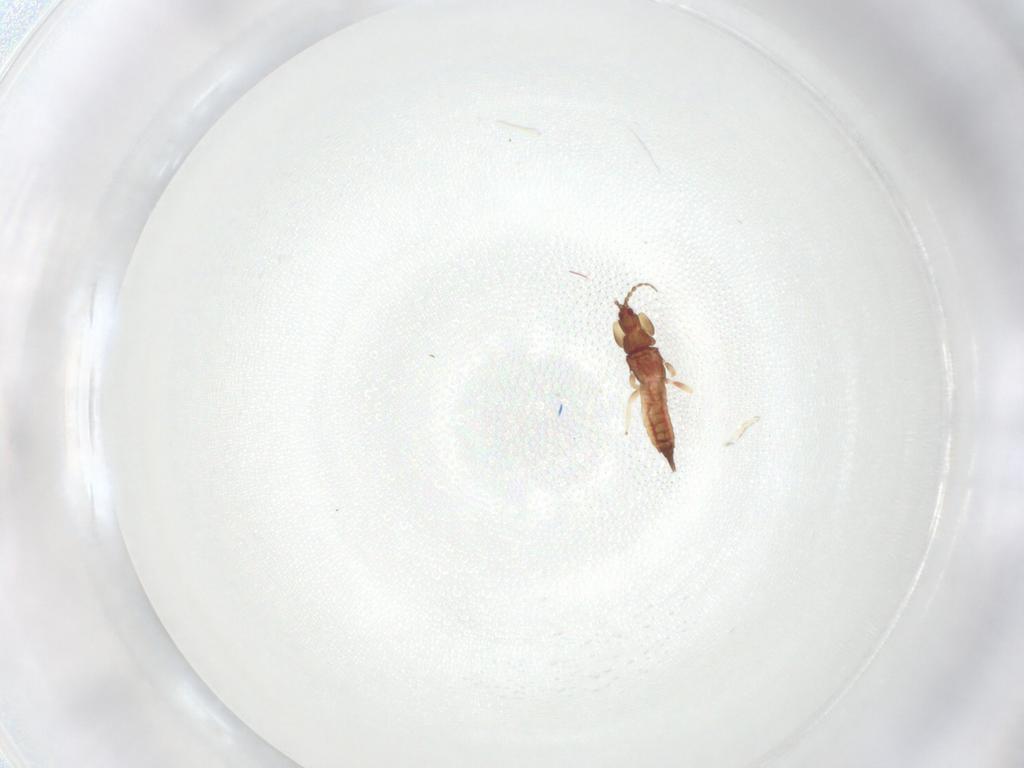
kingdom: Animalia
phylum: Arthropoda
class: Insecta
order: Thysanoptera
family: Phlaeothripidae
